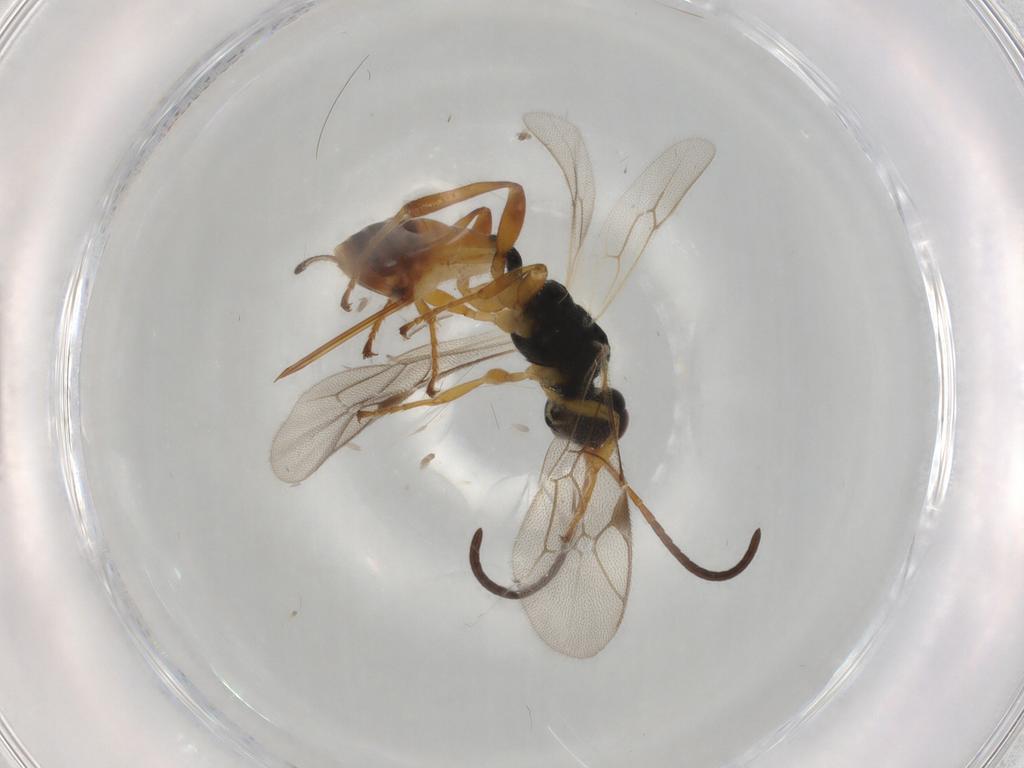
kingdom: Animalia
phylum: Arthropoda
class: Insecta
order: Hymenoptera
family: Ichneumonidae
